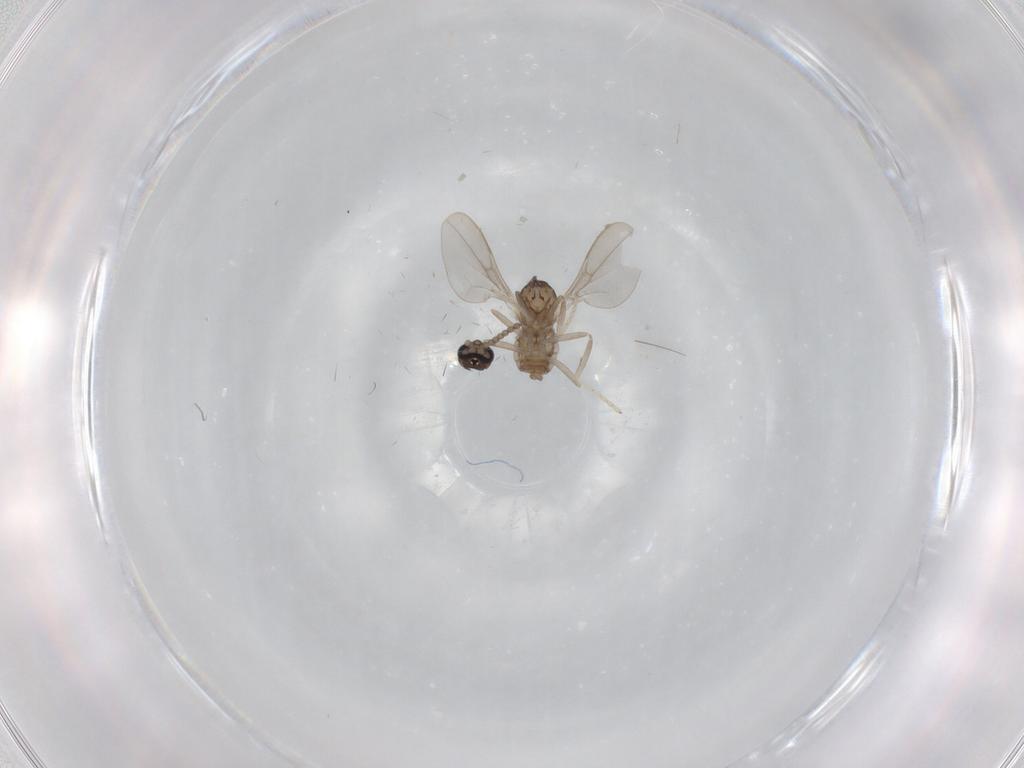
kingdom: Animalia
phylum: Arthropoda
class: Insecta
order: Diptera
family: Cecidomyiidae
